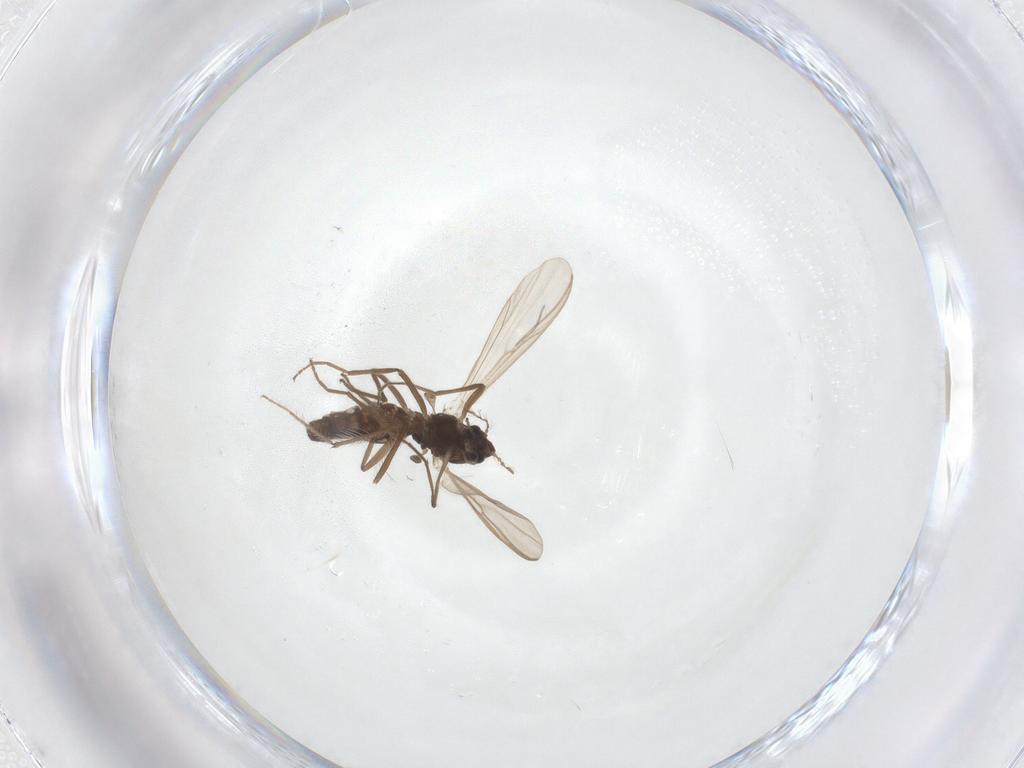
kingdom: Animalia
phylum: Arthropoda
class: Insecta
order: Diptera
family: Chironomidae
